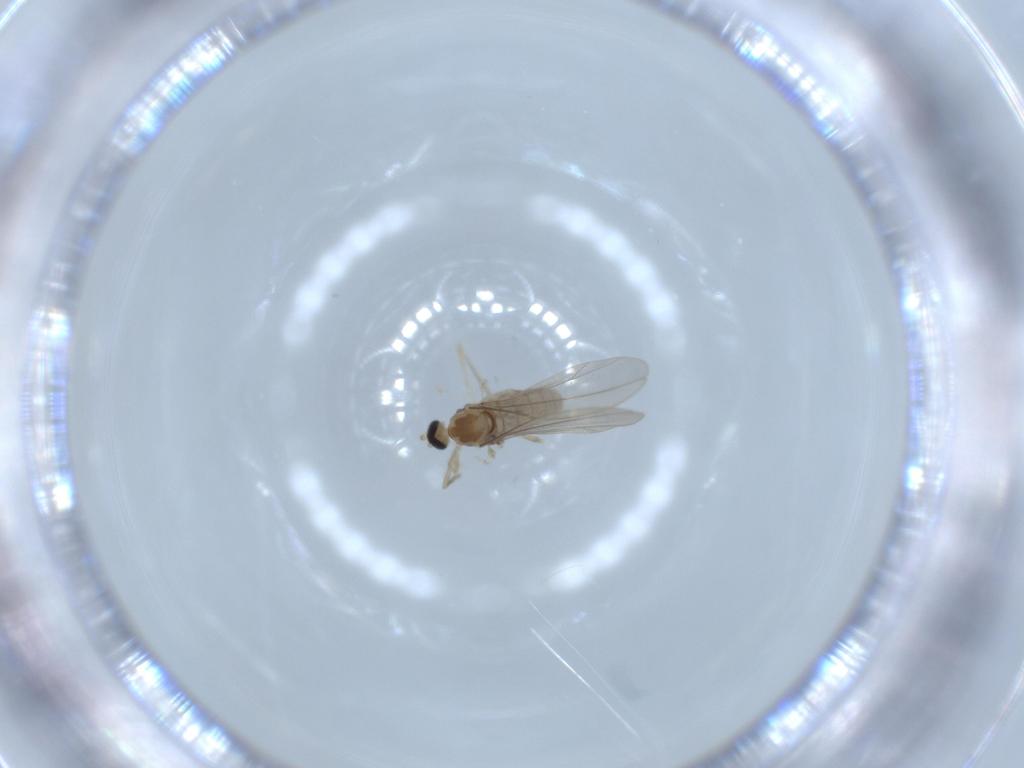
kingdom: Animalia
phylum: Arthropoda
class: Insecta
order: Diptera
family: Cecidomyiidae
